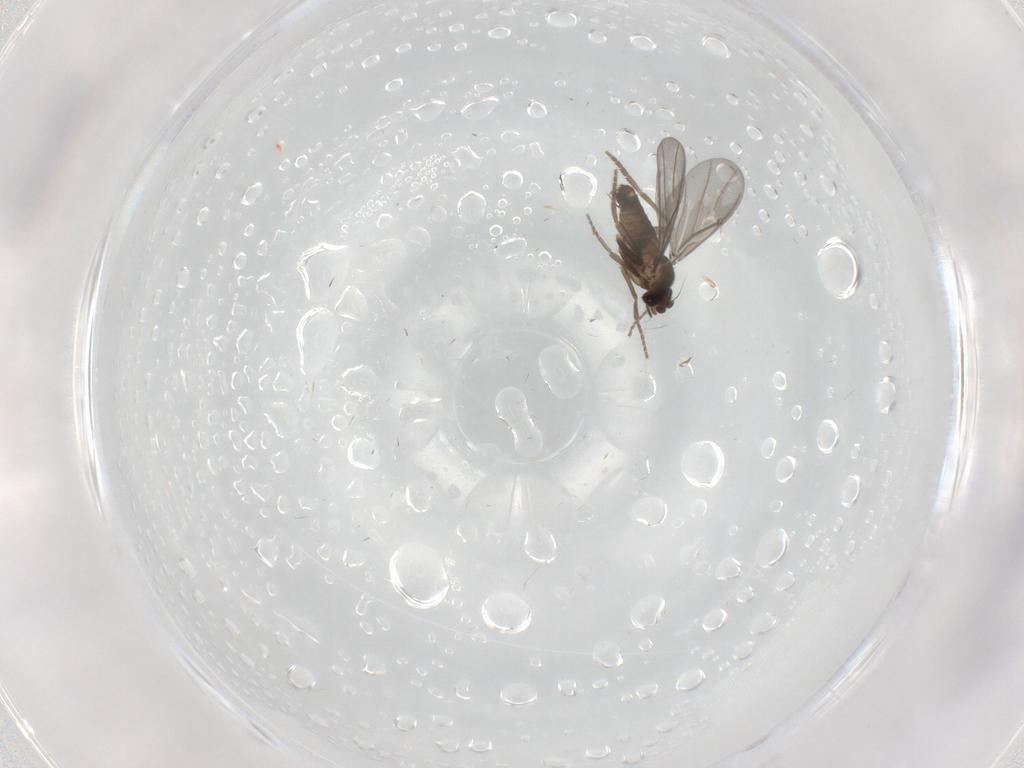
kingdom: Animalia
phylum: Arthropoda
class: Insecta
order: Diptera
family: Phoridae
